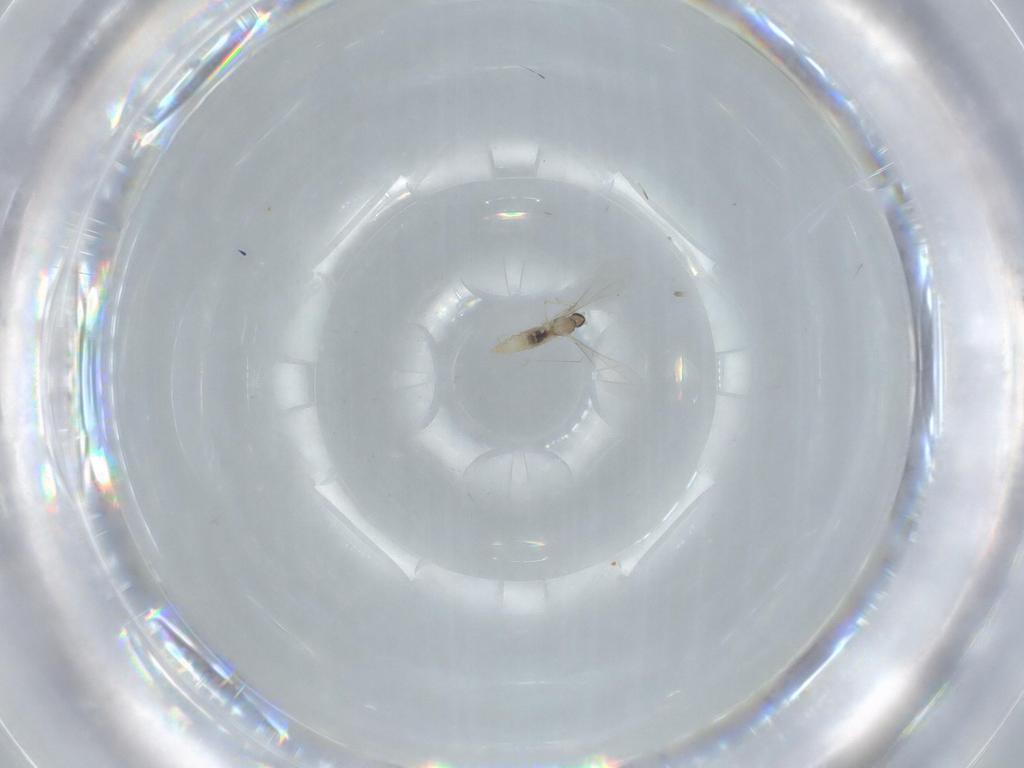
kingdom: Animalia
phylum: Arthropoda
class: Insecta
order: Diptera
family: Cecidomyiidae
